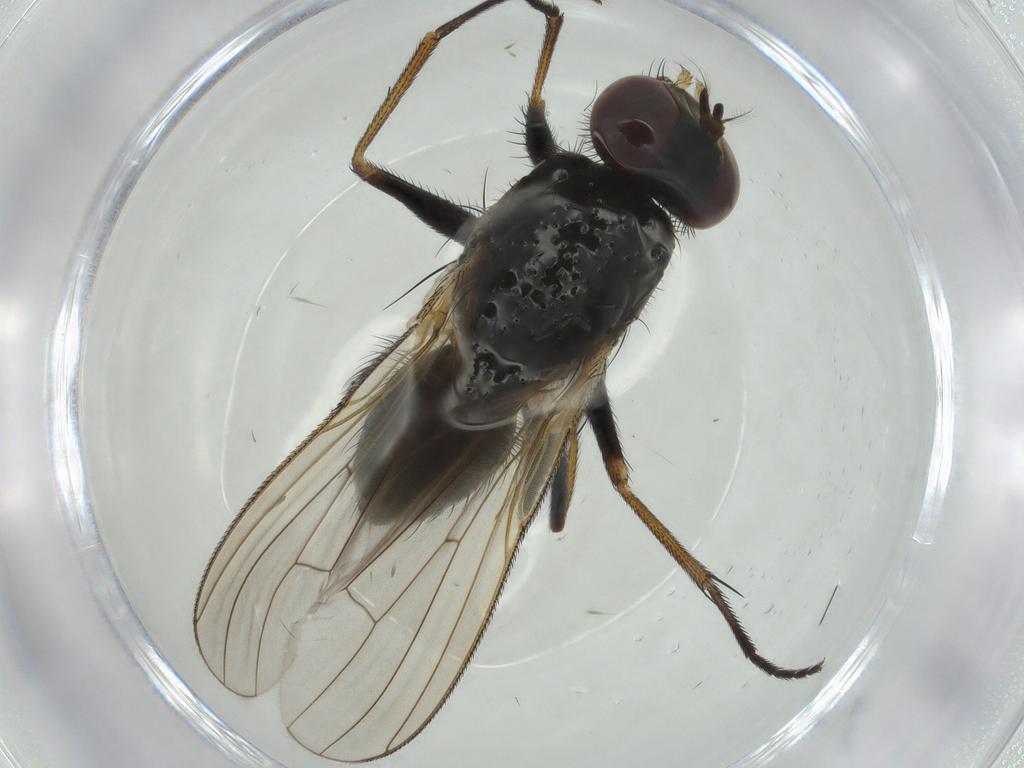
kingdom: Animalia
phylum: Arthropoda
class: Insecta
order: Diptera
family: Muscidae
